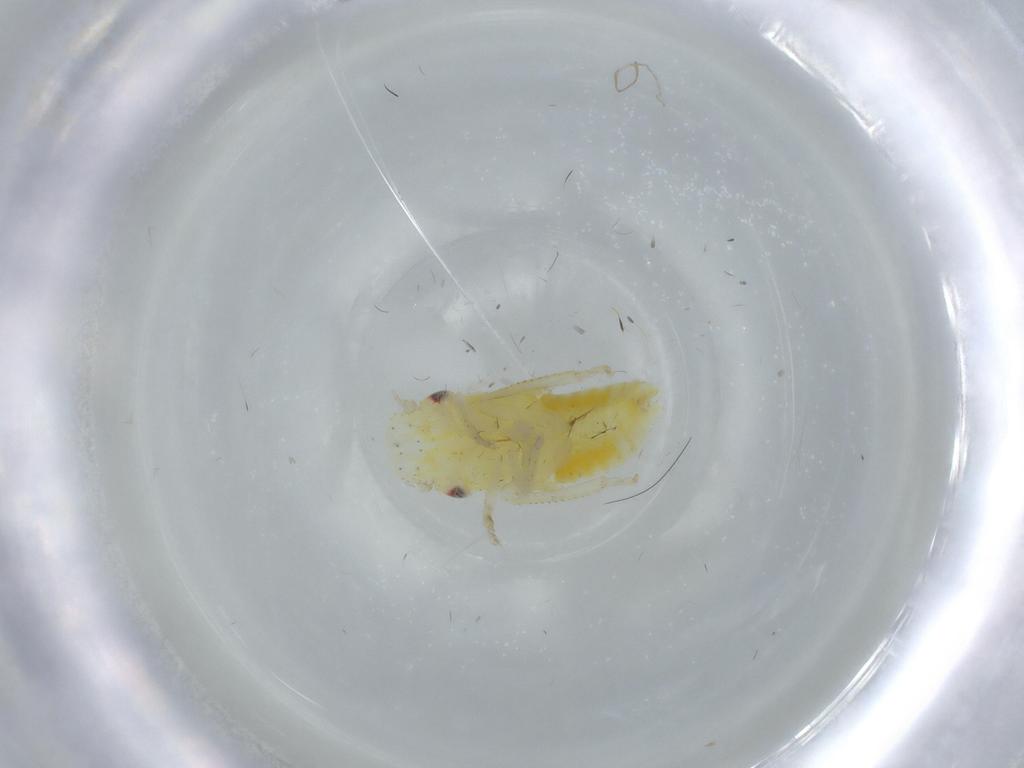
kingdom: Animalia
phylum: Arthropoda
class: Insecta
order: Hemiptera
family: Cicadellidae
